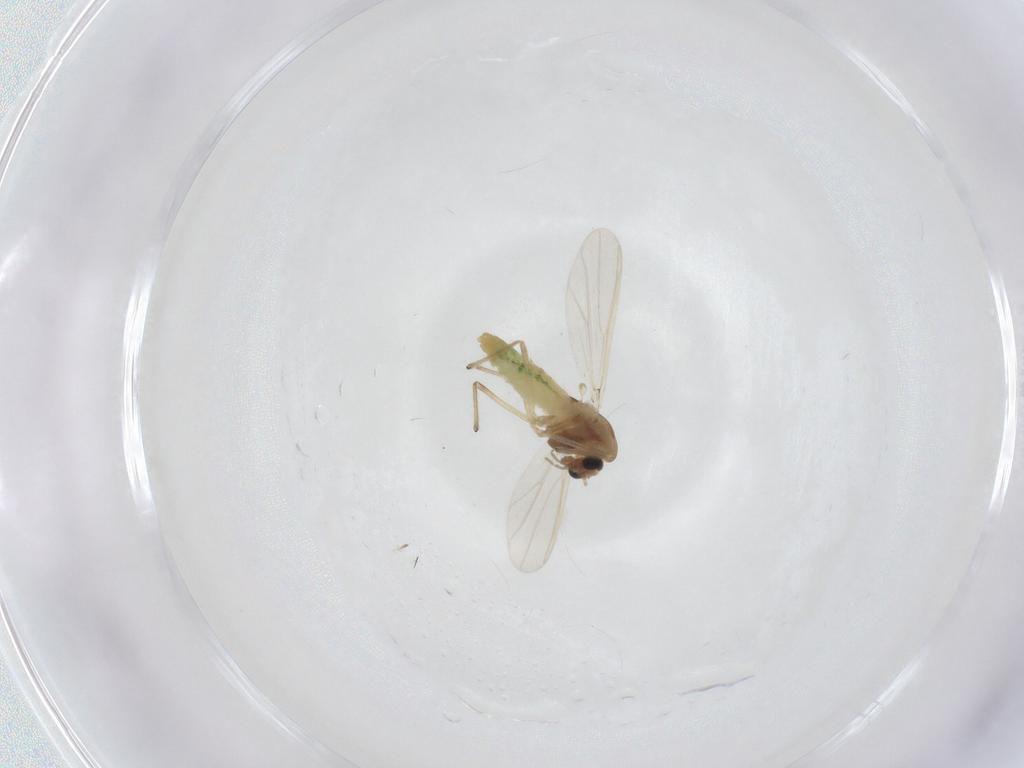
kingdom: Animalia
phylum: Arthropoda
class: Insecta
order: Diptera
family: Chironomidae
